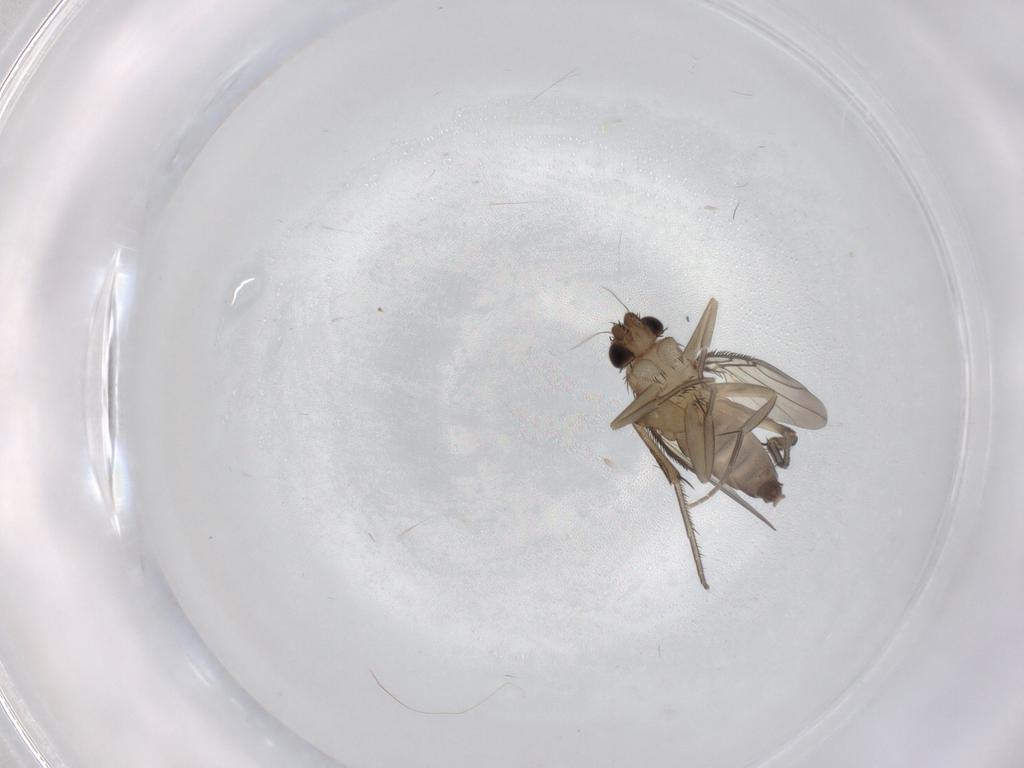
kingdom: Animalia
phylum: Arthropoda
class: Insecta
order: Diptera
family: Phoridae
